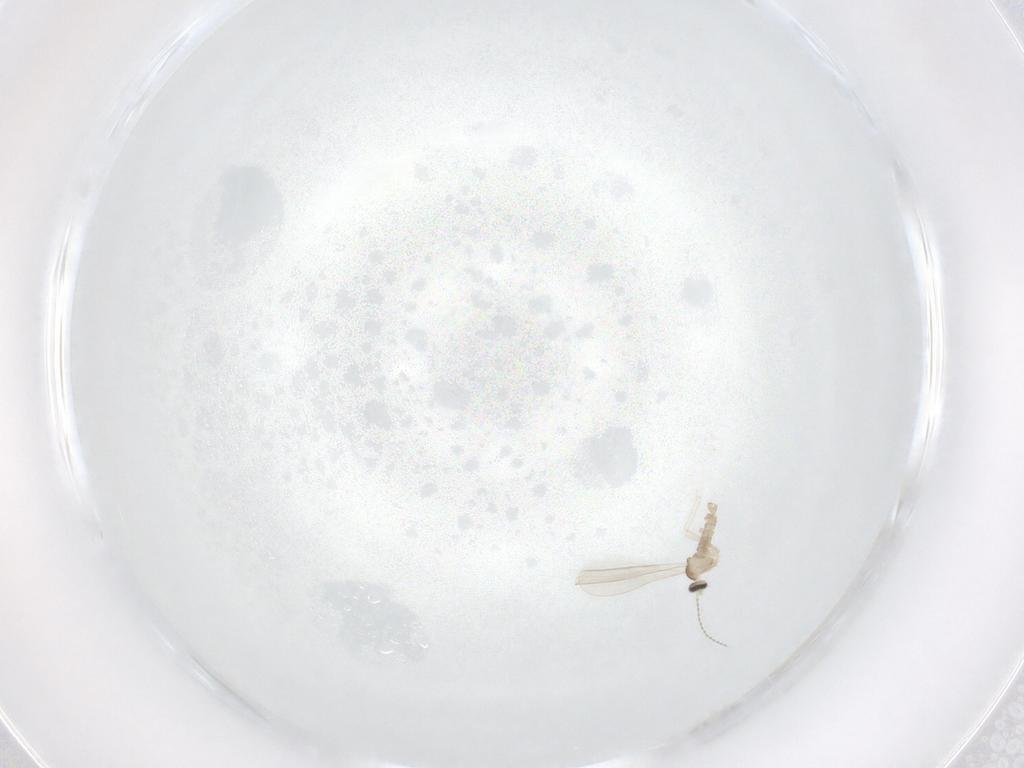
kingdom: Animalia
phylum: Arthropoda
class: Insecta
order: Diptera
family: Cecidomyiidae
